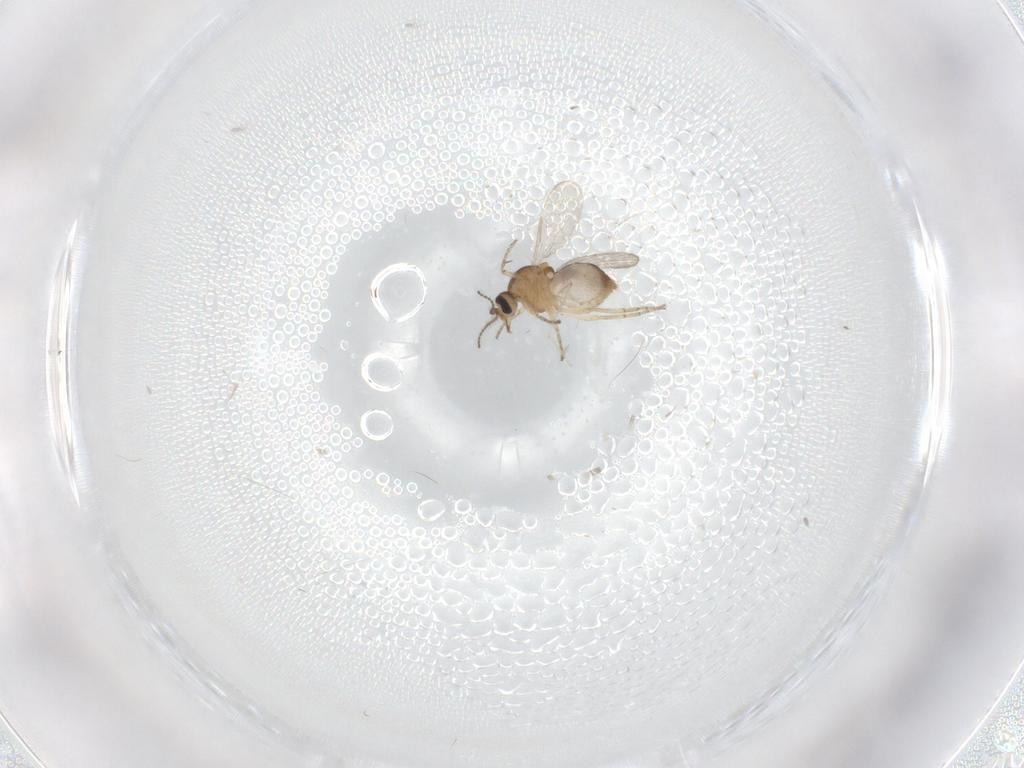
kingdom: Animalia
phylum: Arthropoda
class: Insecta
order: Diptera
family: Ceratopogonidae
